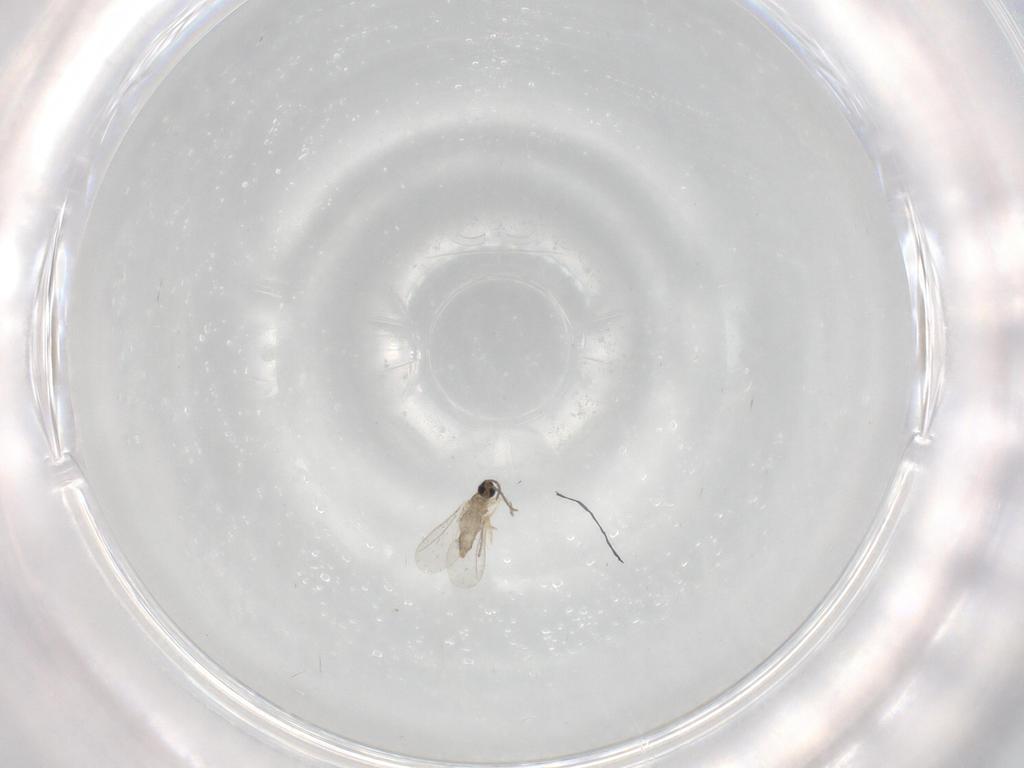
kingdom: Animalia
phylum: Arthropoda
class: Insecta
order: Diptera
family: Cecidomyiidae
